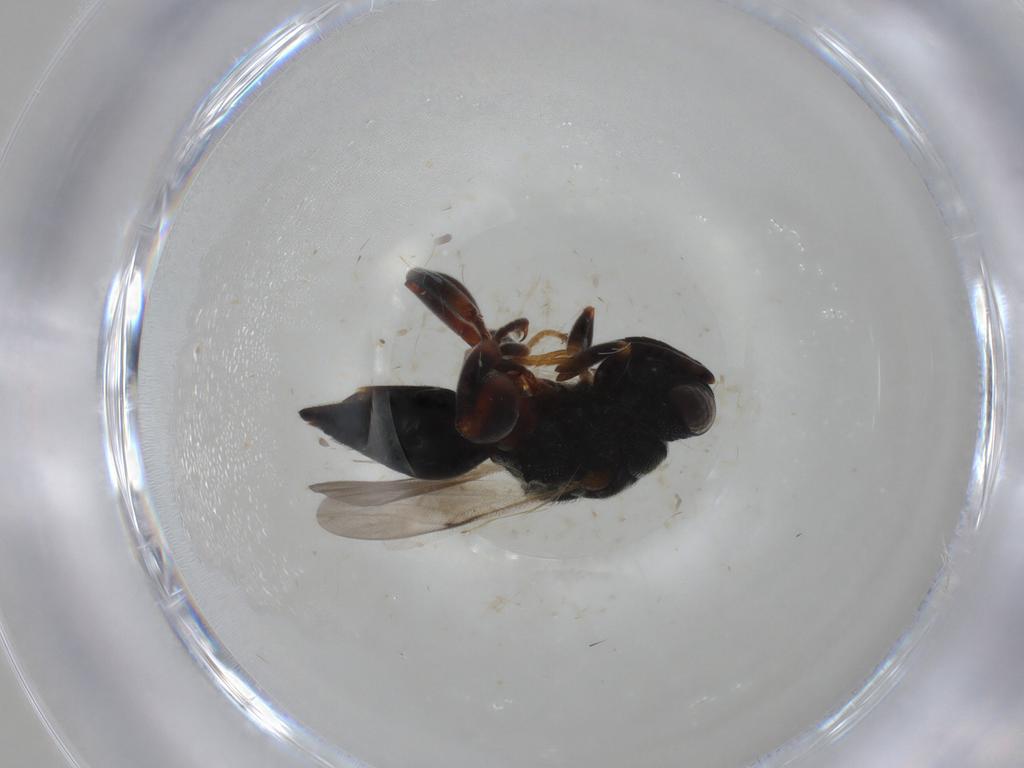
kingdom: Animalia
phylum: Arthropoda
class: Insecta
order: Hymenoptera
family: Chalcididae
